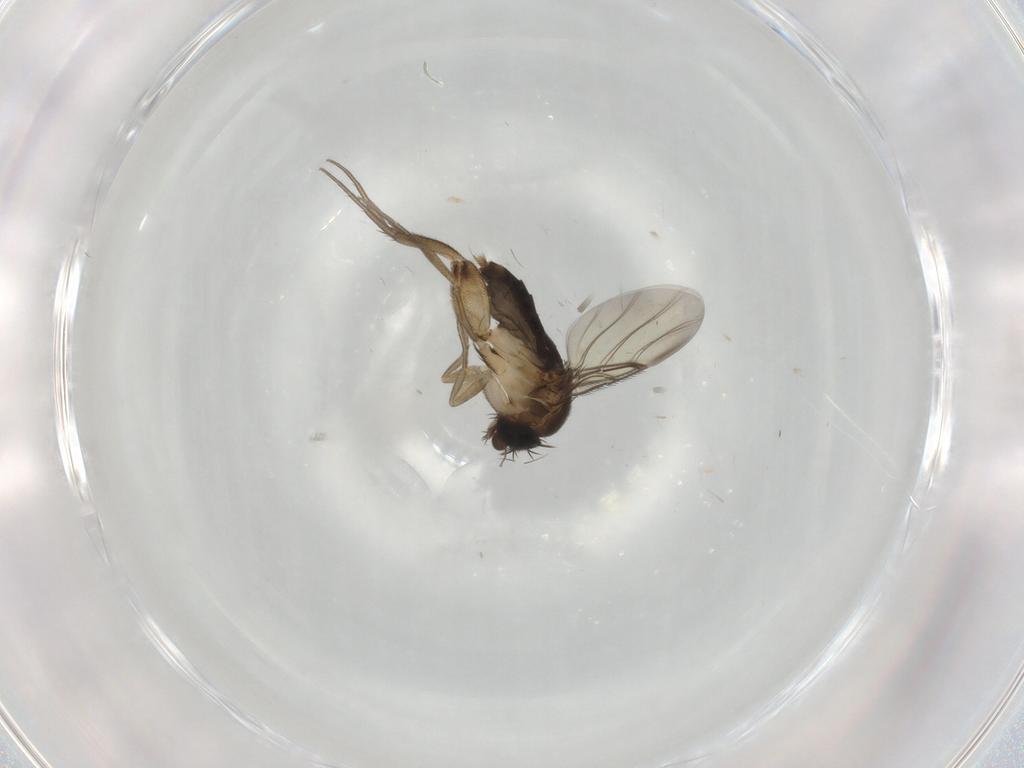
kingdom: Animalia
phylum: Arthropoda
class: Insecta
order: Diptera
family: Phoridae
